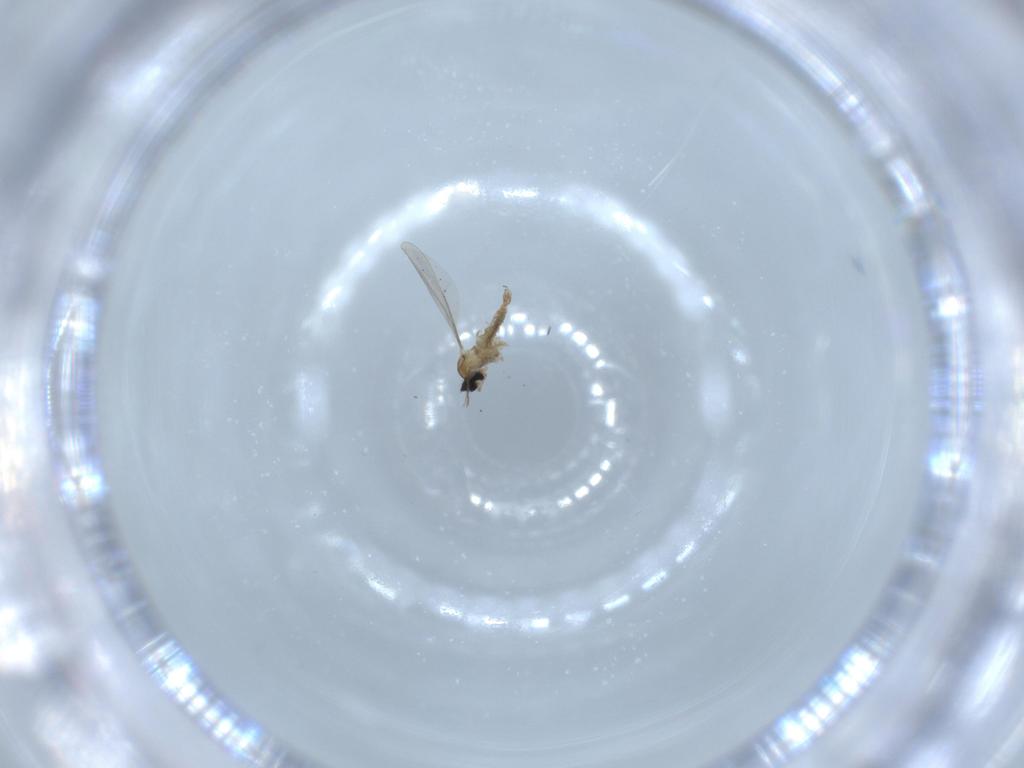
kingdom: Animalia
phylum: Arthropoda
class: Insecta
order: Diptera
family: Cecidomyiidae
